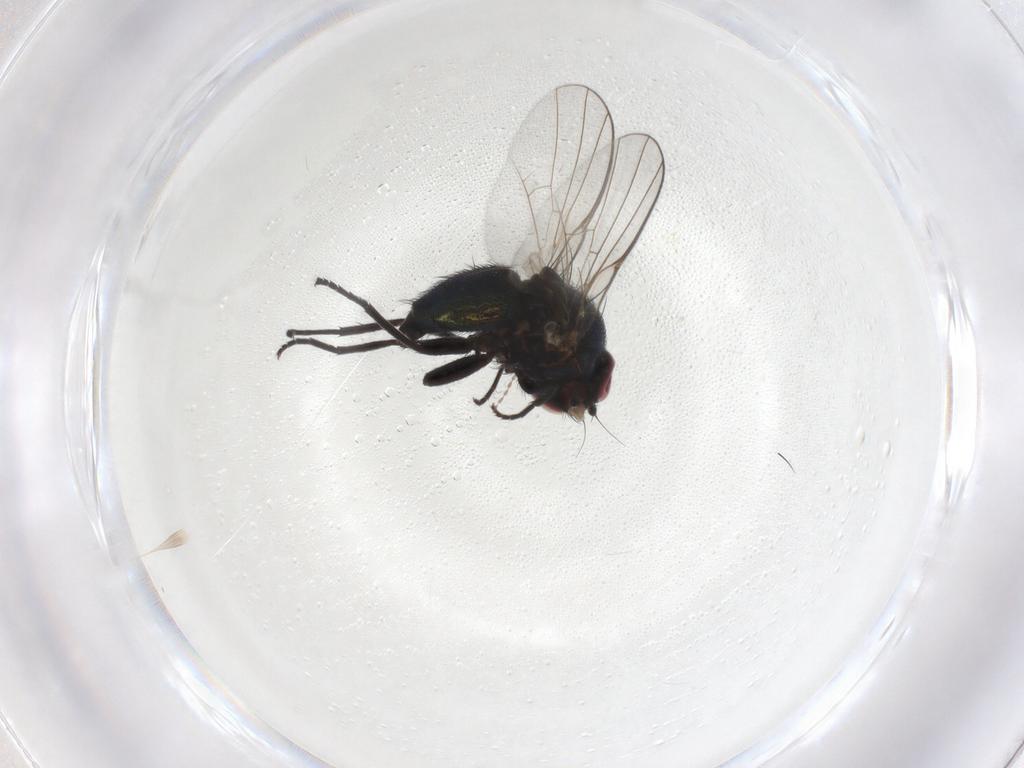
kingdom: Animalia
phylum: Arthropoda
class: Insecta
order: Diptera
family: Agromyzidae
